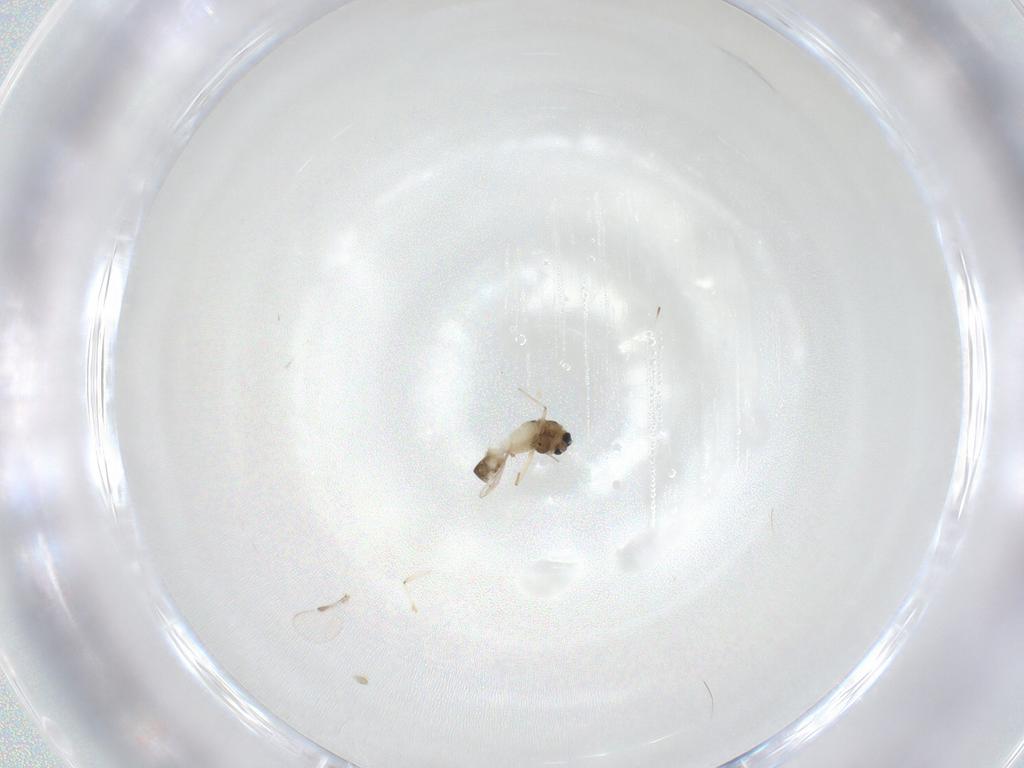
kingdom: Animalia
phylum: Arthropoda
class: Insecta
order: Diptera
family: Chironomidae
